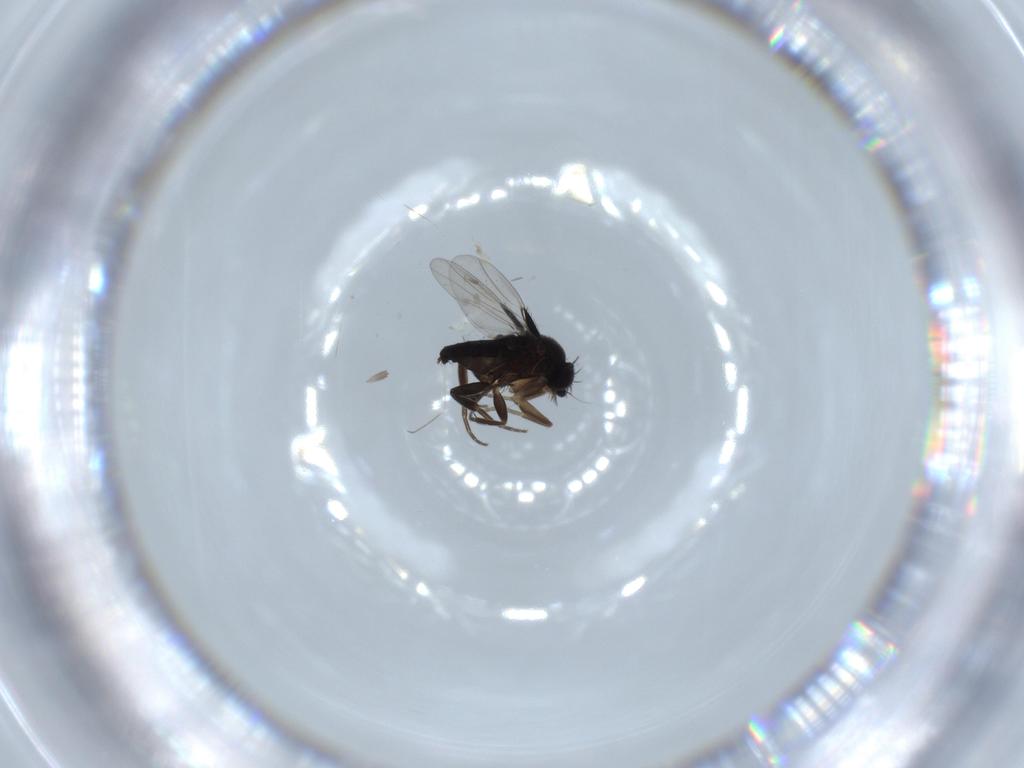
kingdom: Animalia
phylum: Arthropoda
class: Insecta
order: Diptera
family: Phoridae
